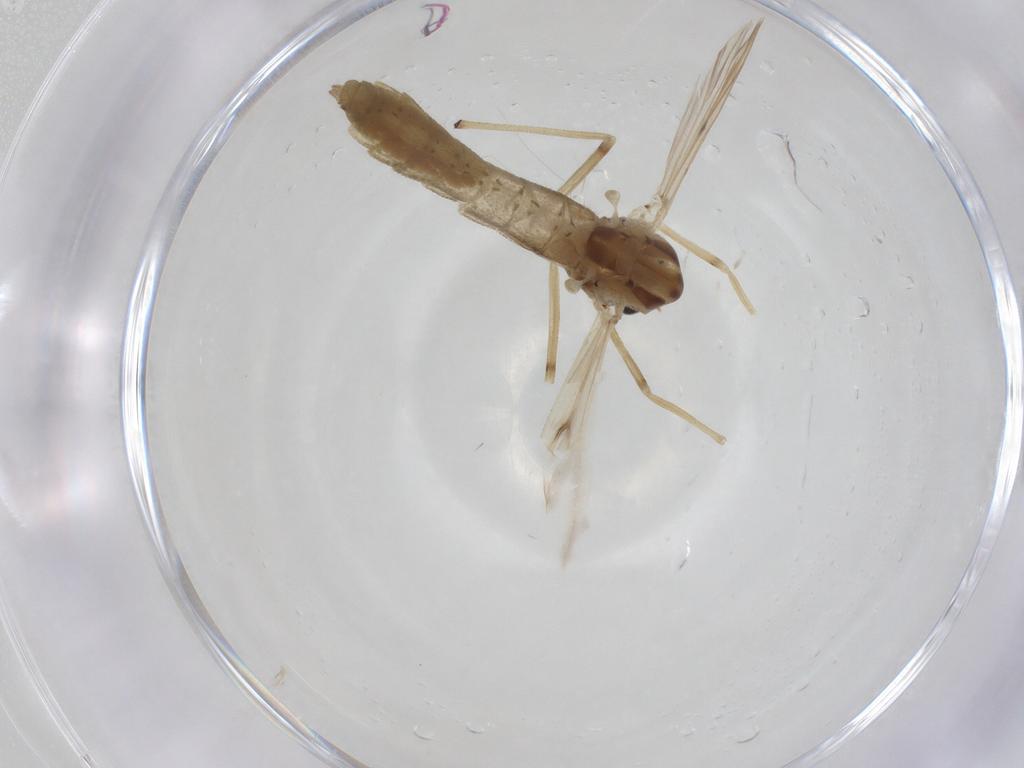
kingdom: Animalia
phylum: Arthropoda
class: Insecta
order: Diptera
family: Chironomidae
